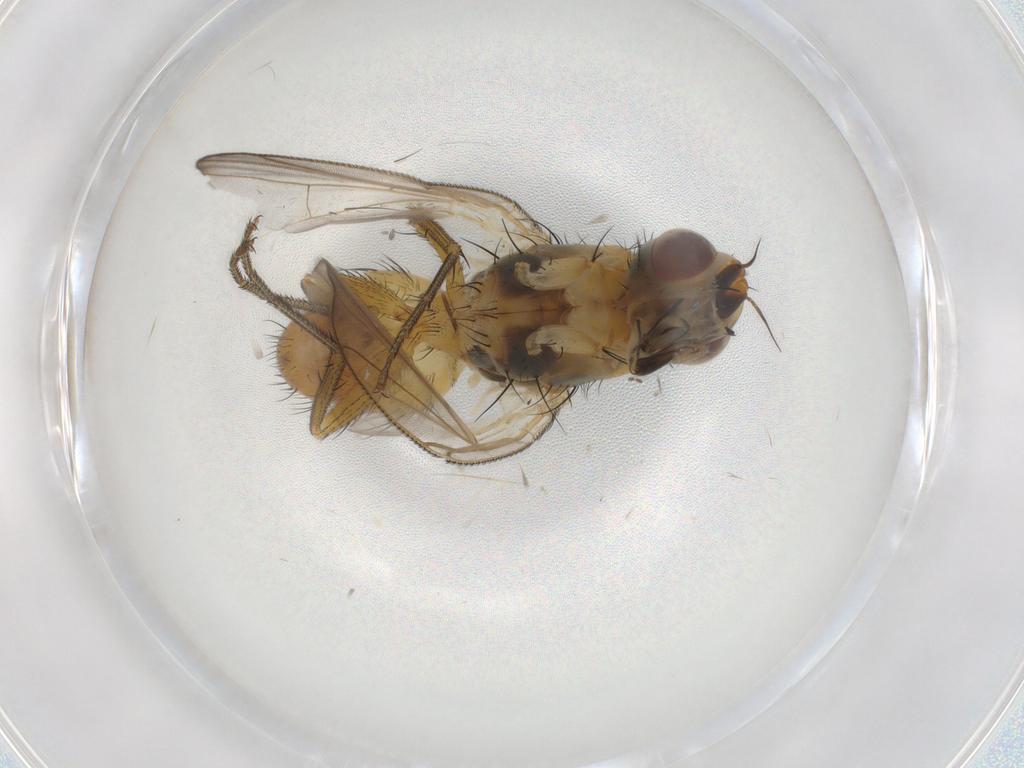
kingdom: Animalia
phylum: Arthropoda
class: Insecta
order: Diptera
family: Muscidae
